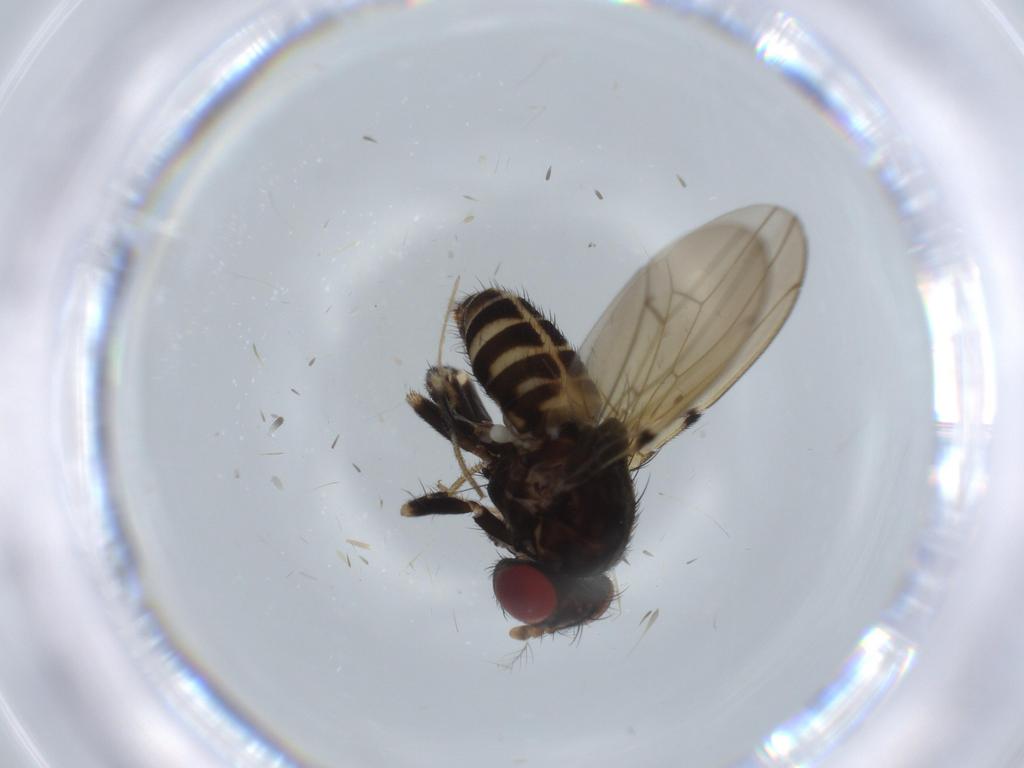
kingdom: Animalia
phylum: Arthropoda
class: Insecta
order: Diptera
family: Drosophilidae
